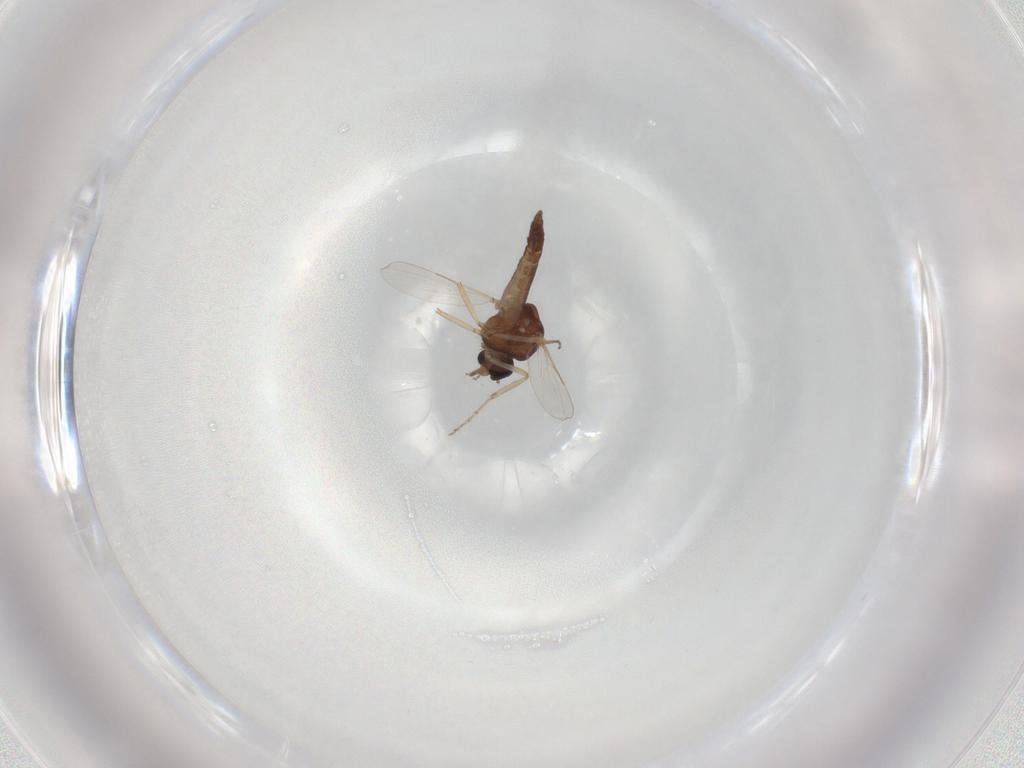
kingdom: Animalia
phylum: Arthropoda
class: Insecta
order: Diptera
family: Ceratopogonidae
